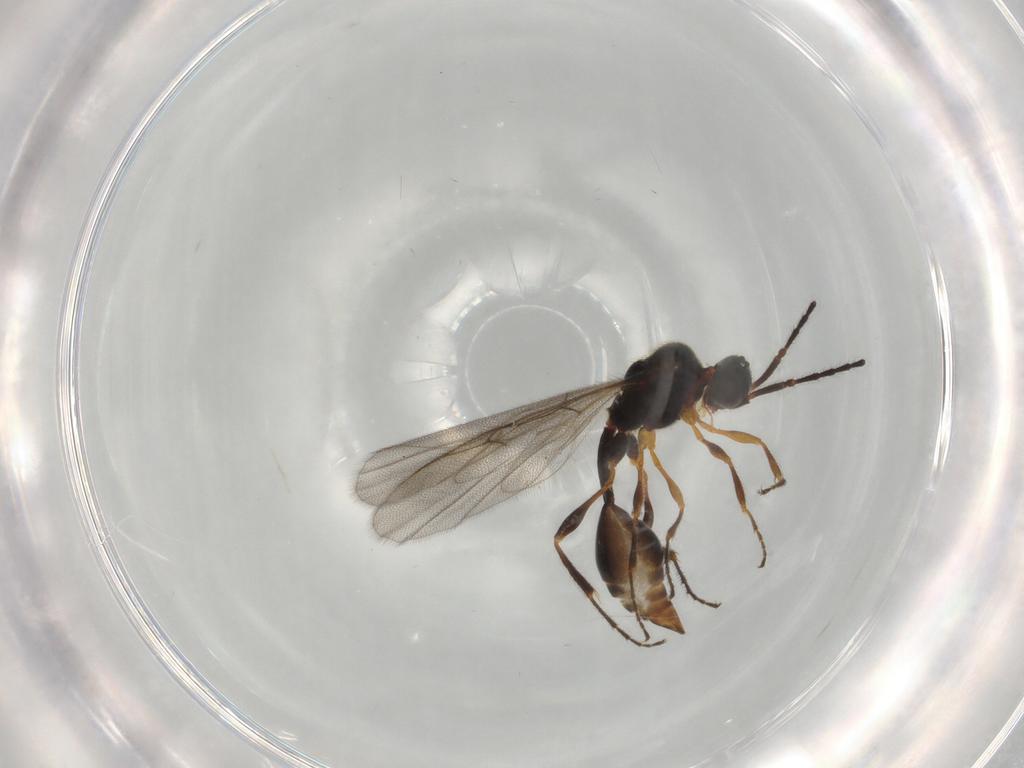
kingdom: Animalia
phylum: Arthropoda
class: Insecta
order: Hymenoptera
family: Diapriidae
